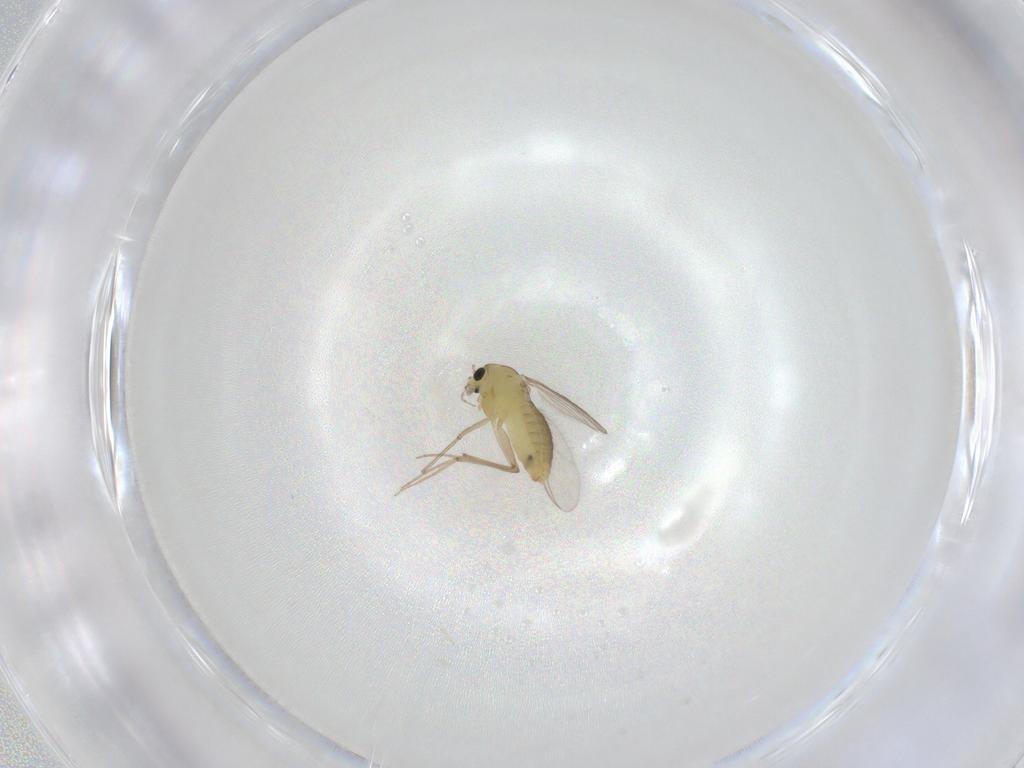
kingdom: Animalia
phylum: Arthropoda
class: Insecta
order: Diptera
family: Chironomidae
